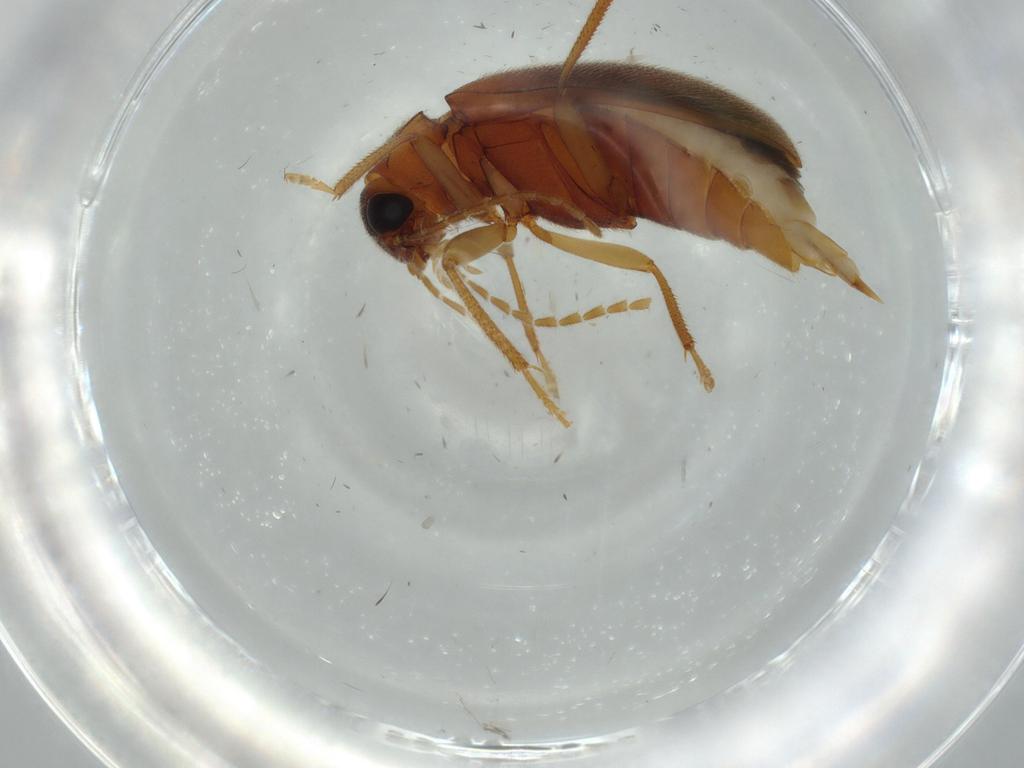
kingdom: Animalia
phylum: Arthropoda
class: Insecta
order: Coleoptera
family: Ptilodactylidae
